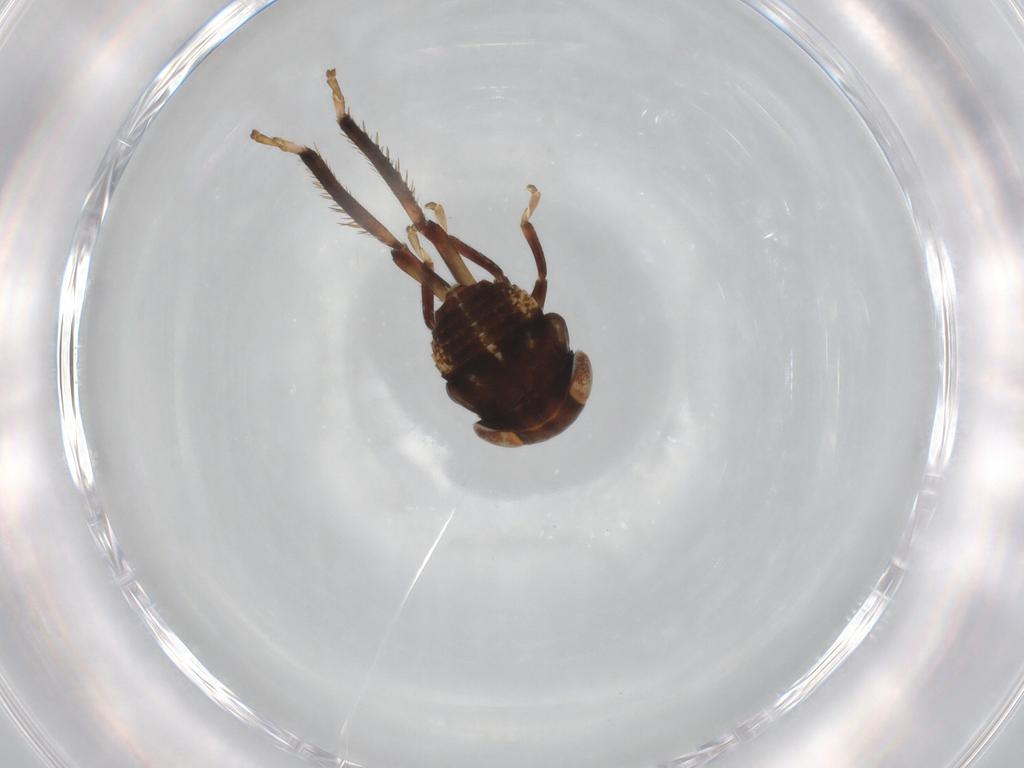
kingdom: Animalia
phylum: Arthropoda
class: Insecta
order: Hemiptera
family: Cicadellidae
